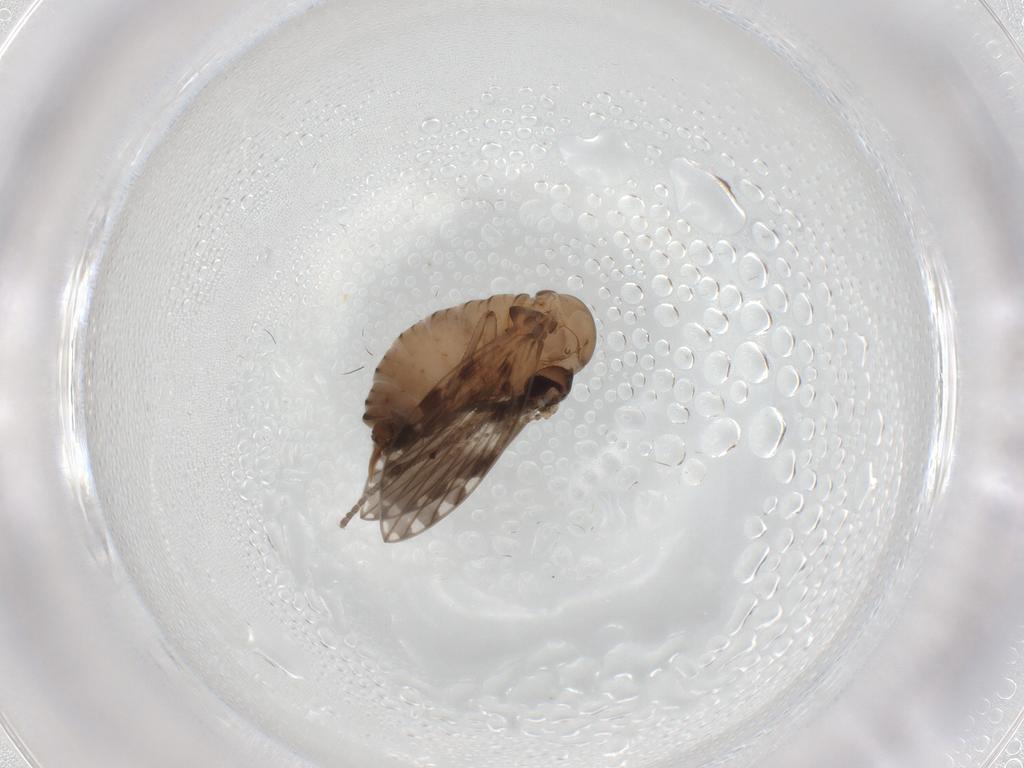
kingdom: Animalia
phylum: Arthropoda
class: Insecta
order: Diptera
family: Psychodidae
